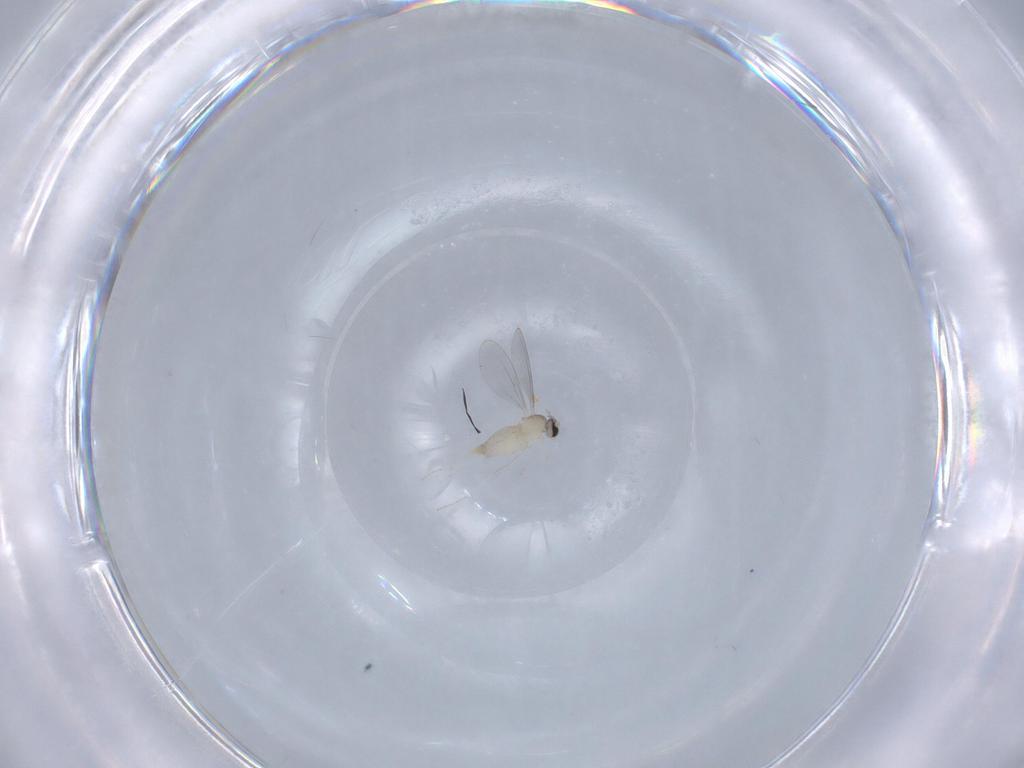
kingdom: Animalia
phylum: Arthropoda
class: Insecta
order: Diptera
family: Cecidomyiidae
